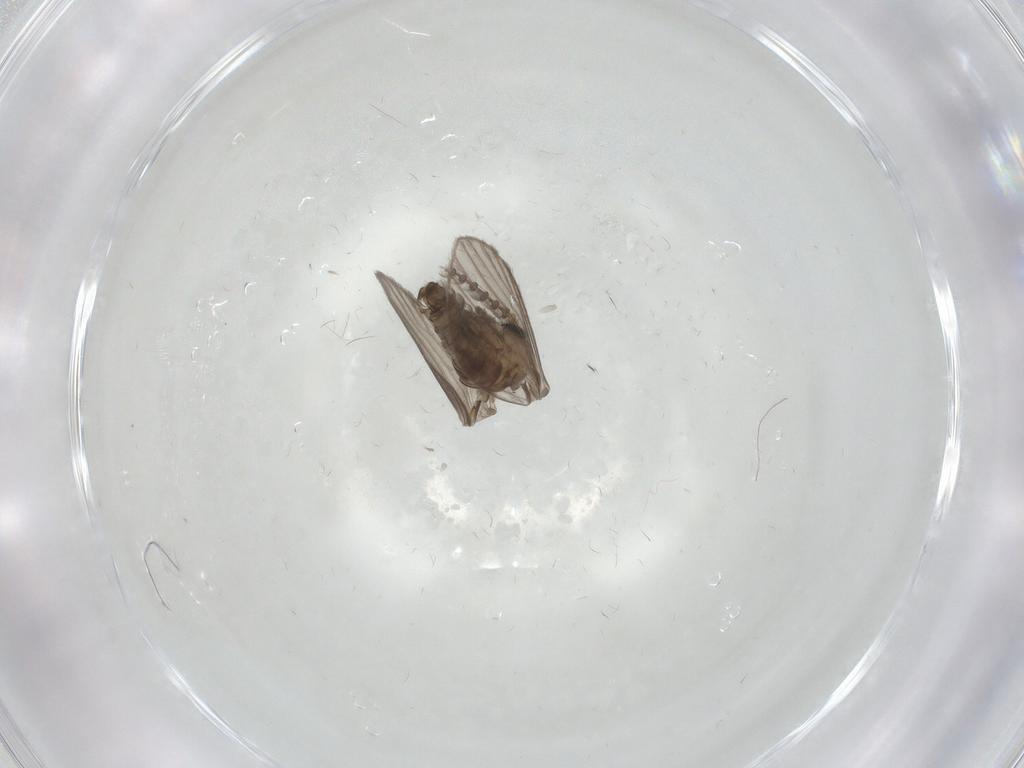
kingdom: Animalia
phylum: Arthropoda
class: Insecta
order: Diptera
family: Psychodidae
